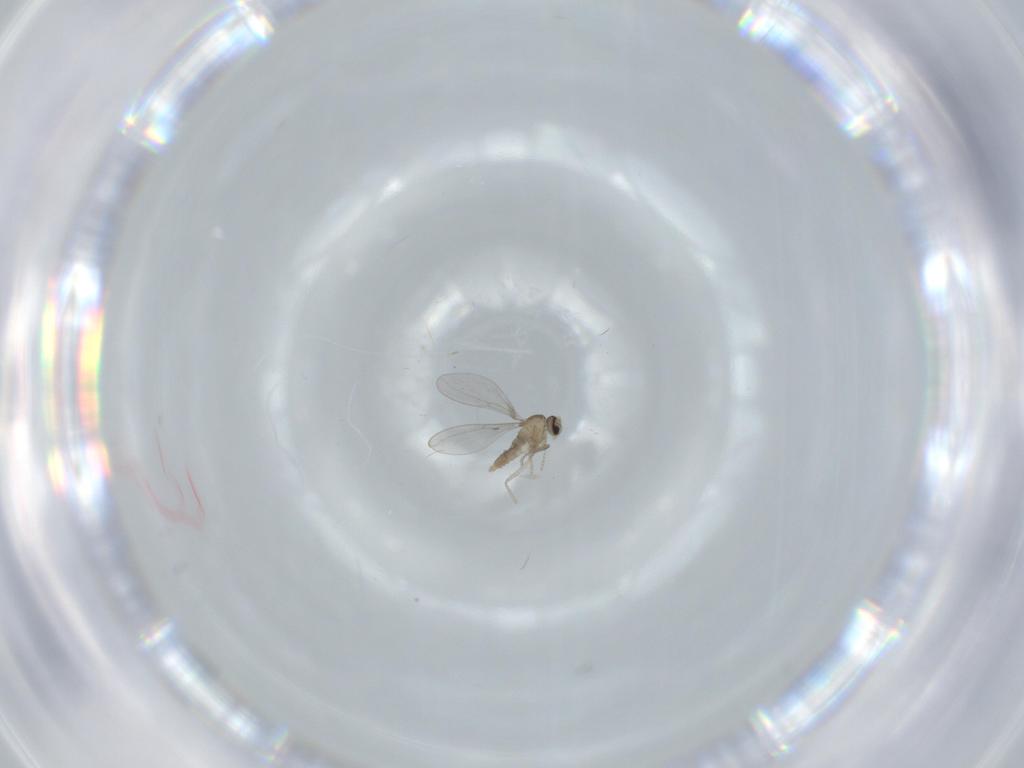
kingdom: Animalia
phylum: Arthropoda
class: Insecta
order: Diptera
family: Cecidomyiidae
